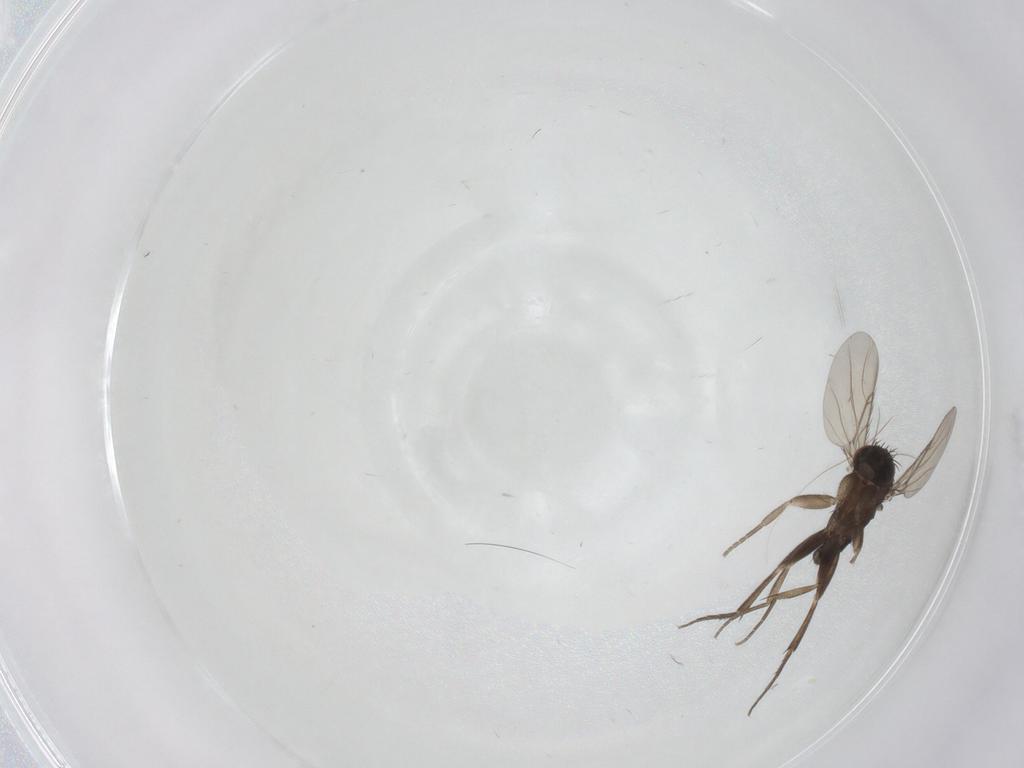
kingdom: Animalia
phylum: Arthropoda
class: Insecta
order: Diptera
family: Phoridae
